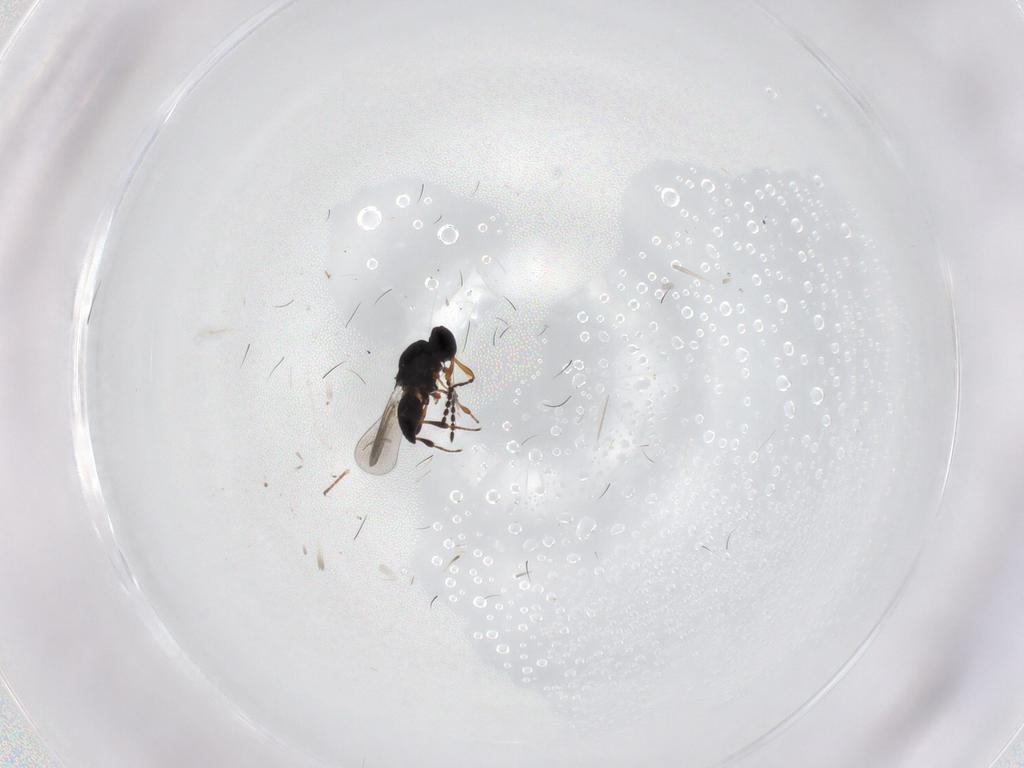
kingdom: Animalia
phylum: Arthropoda
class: Insecta
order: Hymenoptera
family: Platygastridae
